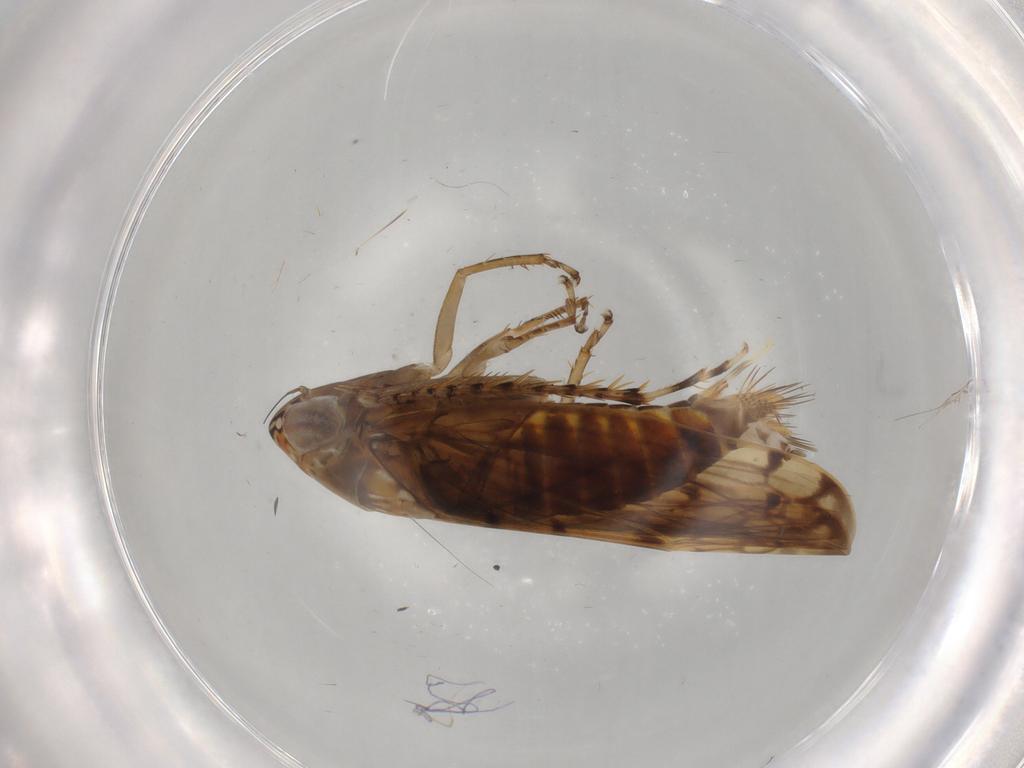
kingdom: Animalia
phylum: Arthropoda
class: Insecta
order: Hemiptera
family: Cicadellidae
